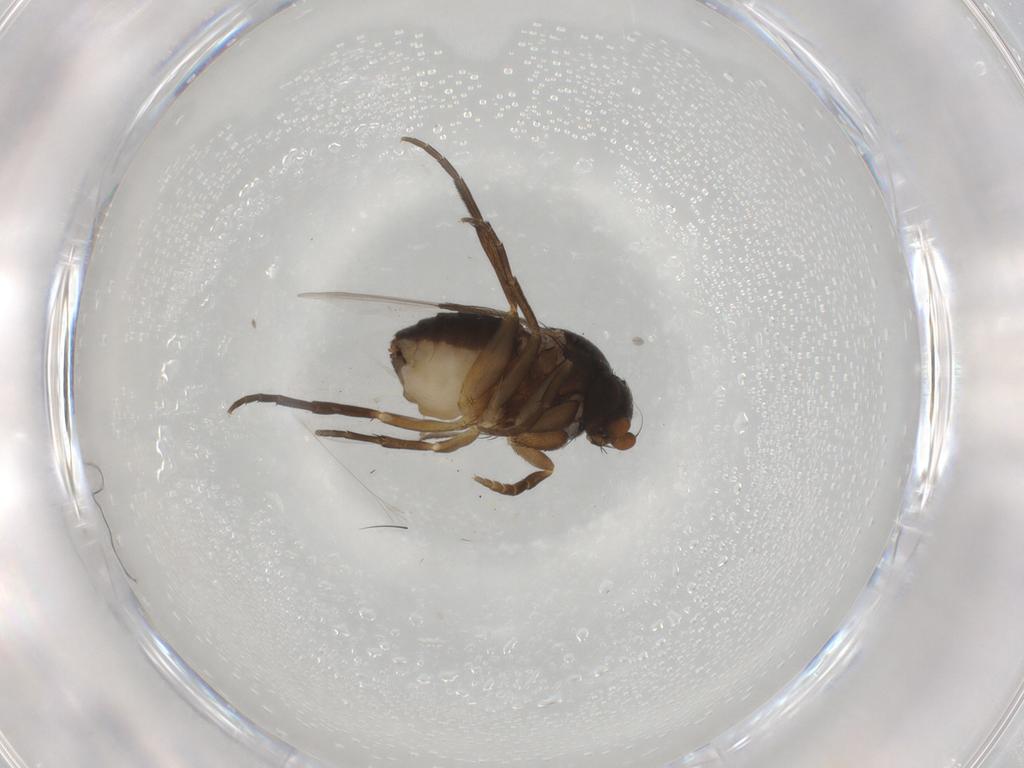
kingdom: Animalia
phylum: Arthropoda
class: Insecta
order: Diptera
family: Phoridae
